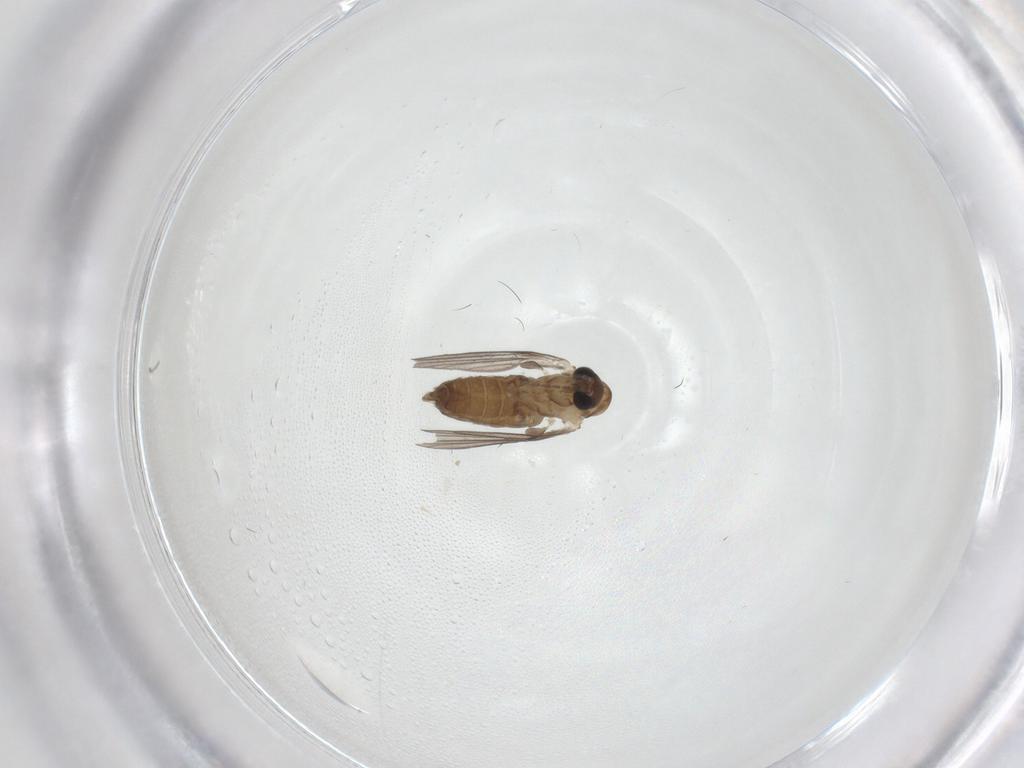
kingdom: Animalia
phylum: Arthropoda
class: Insecta
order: Diptera
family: Anthomyiidae
